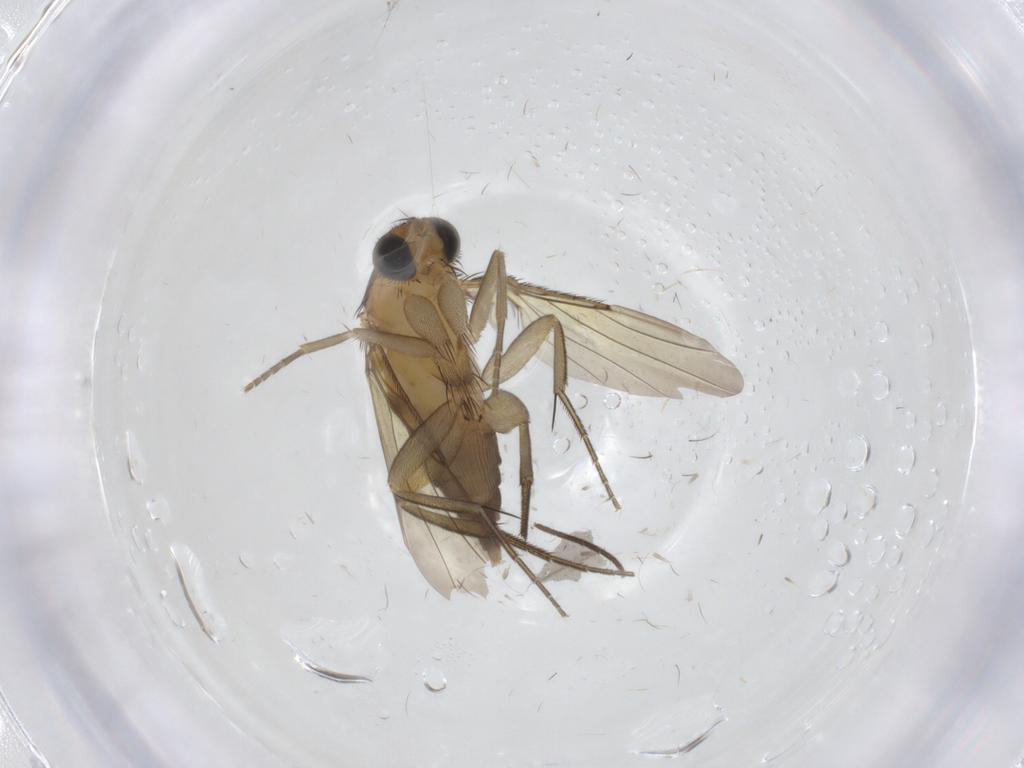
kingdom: Animalia
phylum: Arthropoda
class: Insecta
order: Diptera
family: Phoridae
